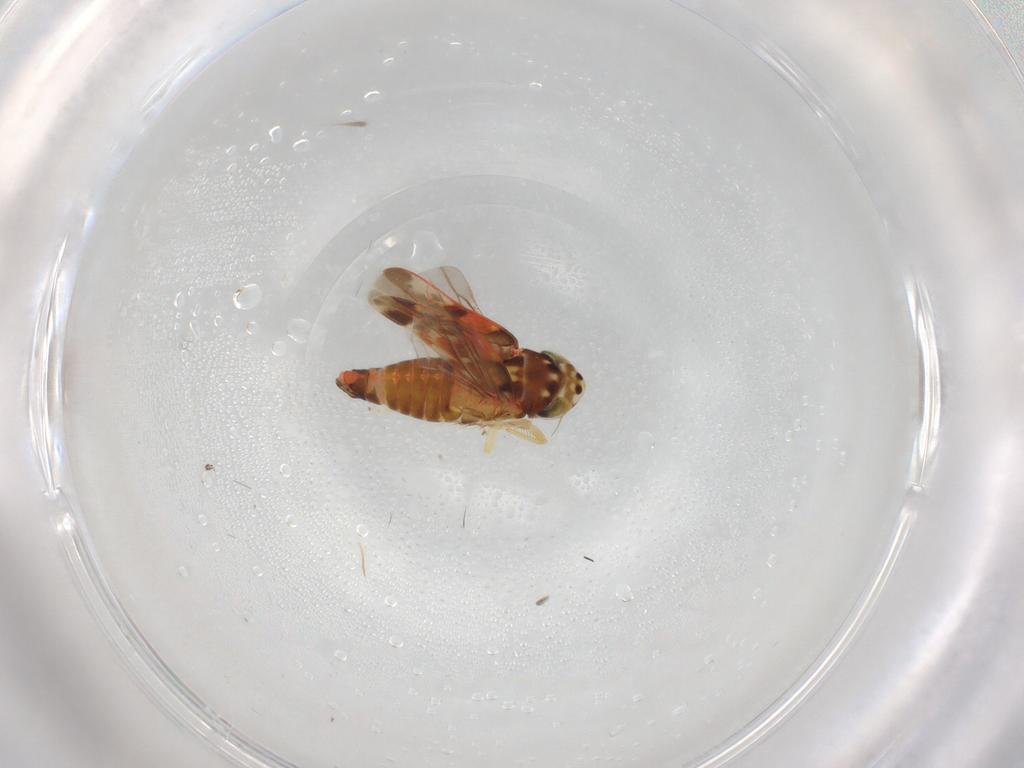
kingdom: Animalia
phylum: Arthropoda
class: Insecta
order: Hemiptera
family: Cicadellidae
